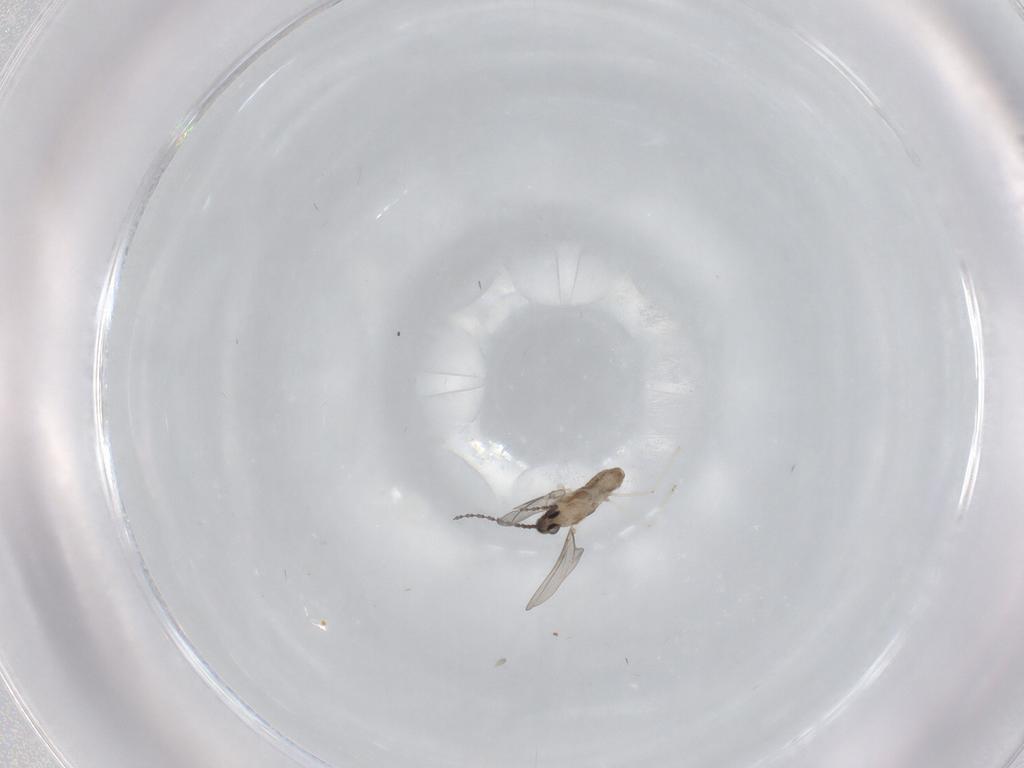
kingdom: Animalia
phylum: Arthropoda
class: Insecta
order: Diptera
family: Cecidomyiidae
